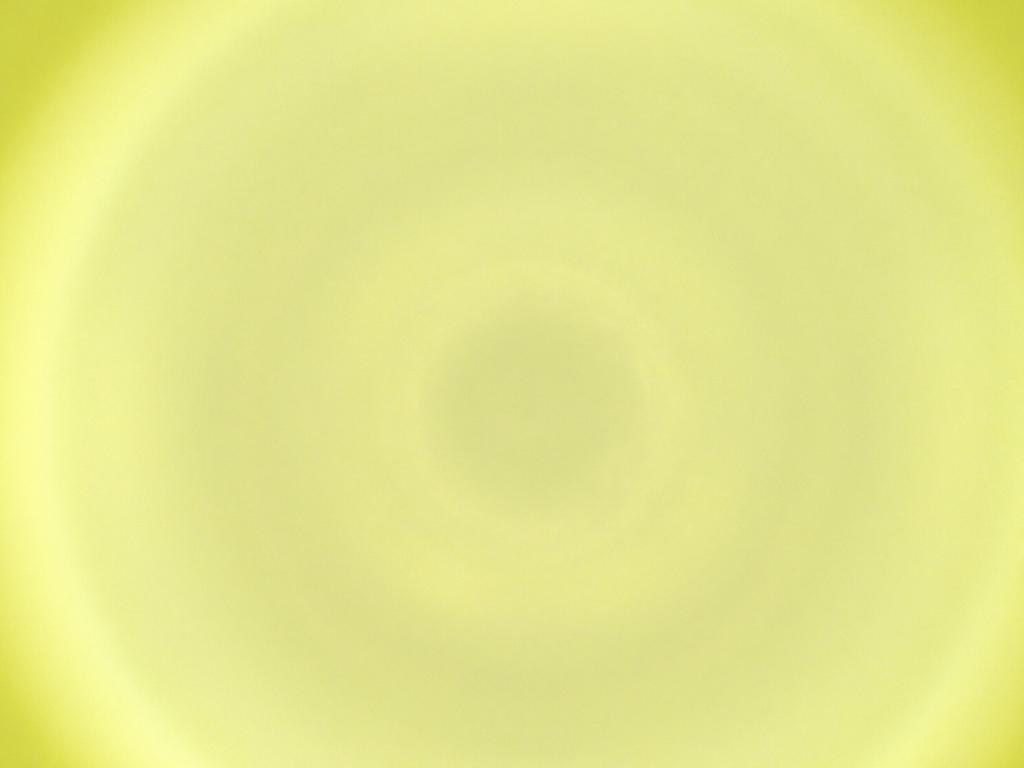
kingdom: Animalia
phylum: Arthropoda
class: Insecta
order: Diptera
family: Cecidomyiidae
